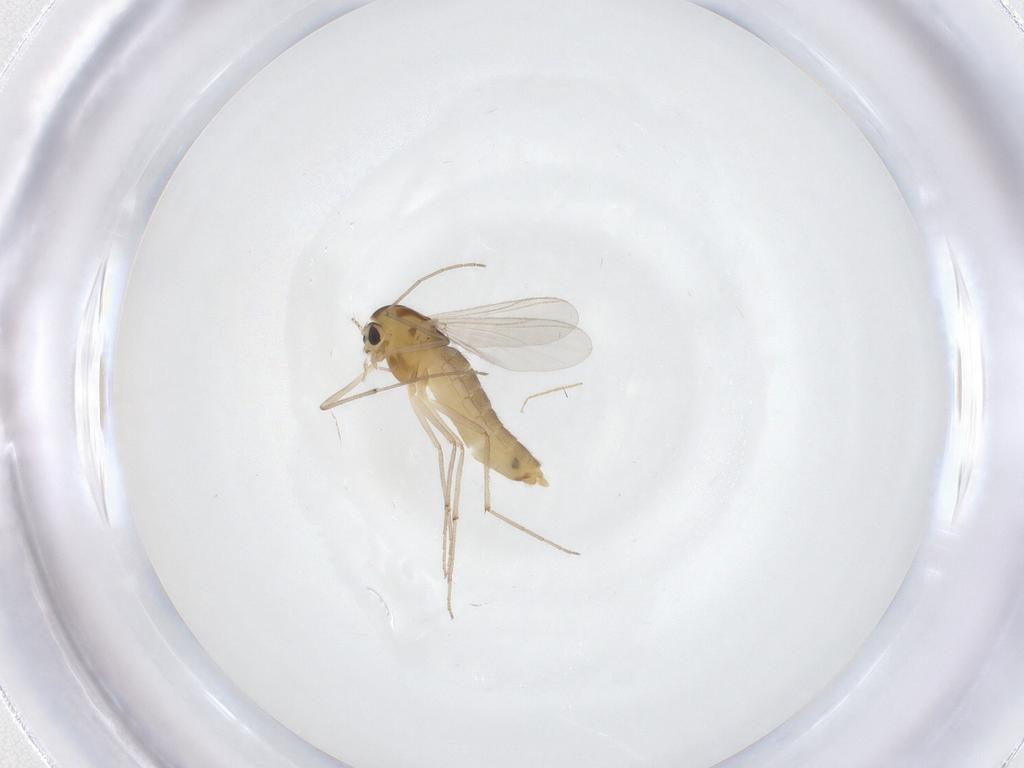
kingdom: Animalia
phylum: Arthropoda
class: Insecta
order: Diptera
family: Chironomidae
